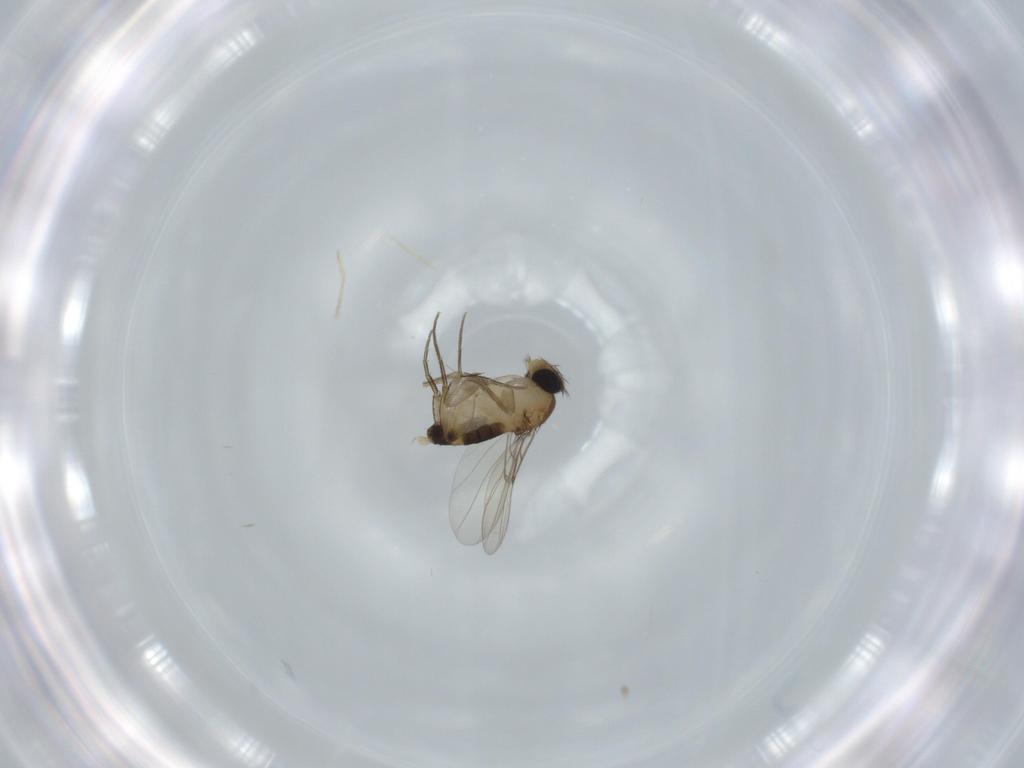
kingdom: Animalia
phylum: Arthropoda
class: Insecta
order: Diptera
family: Phoridae
